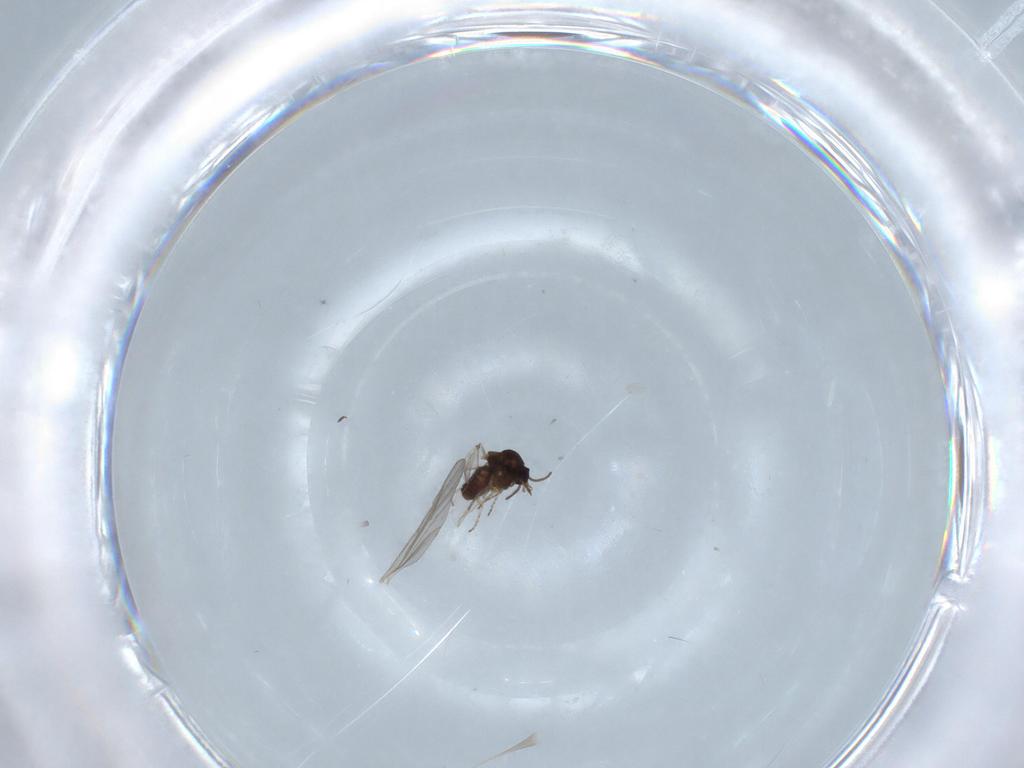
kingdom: Animalia
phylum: Arthropoda
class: Insecta
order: Diptera
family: Ceratopogonidae
